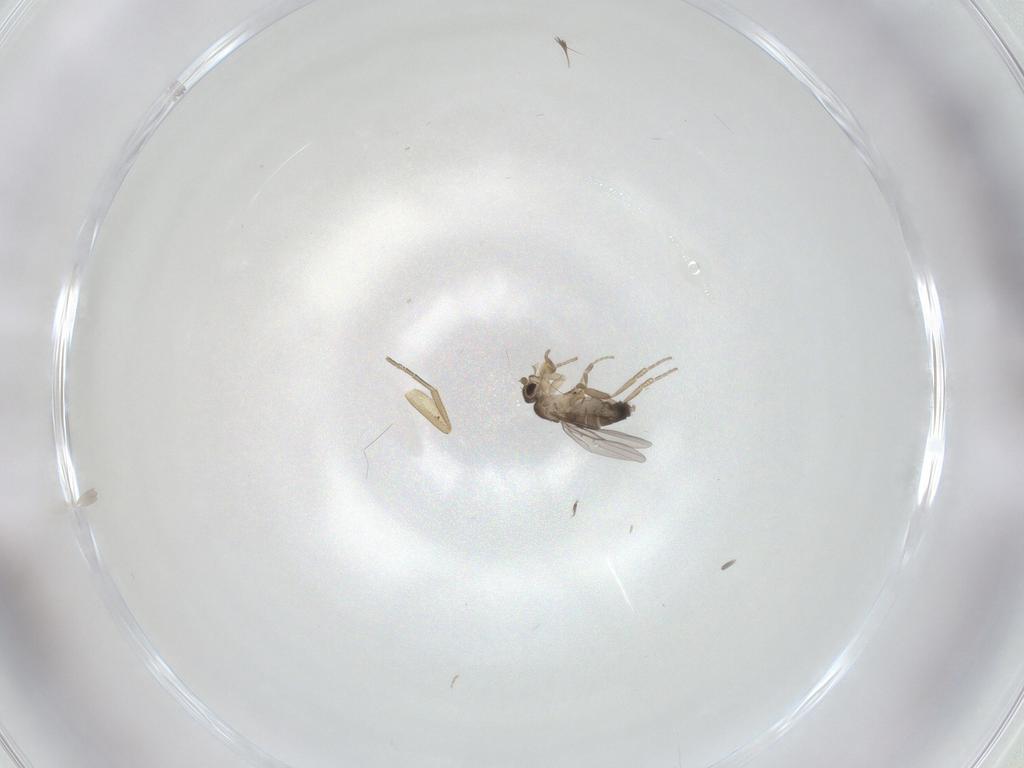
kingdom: Animalia
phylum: Arthropoda
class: Insecta
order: Diptera
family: Phoridae
